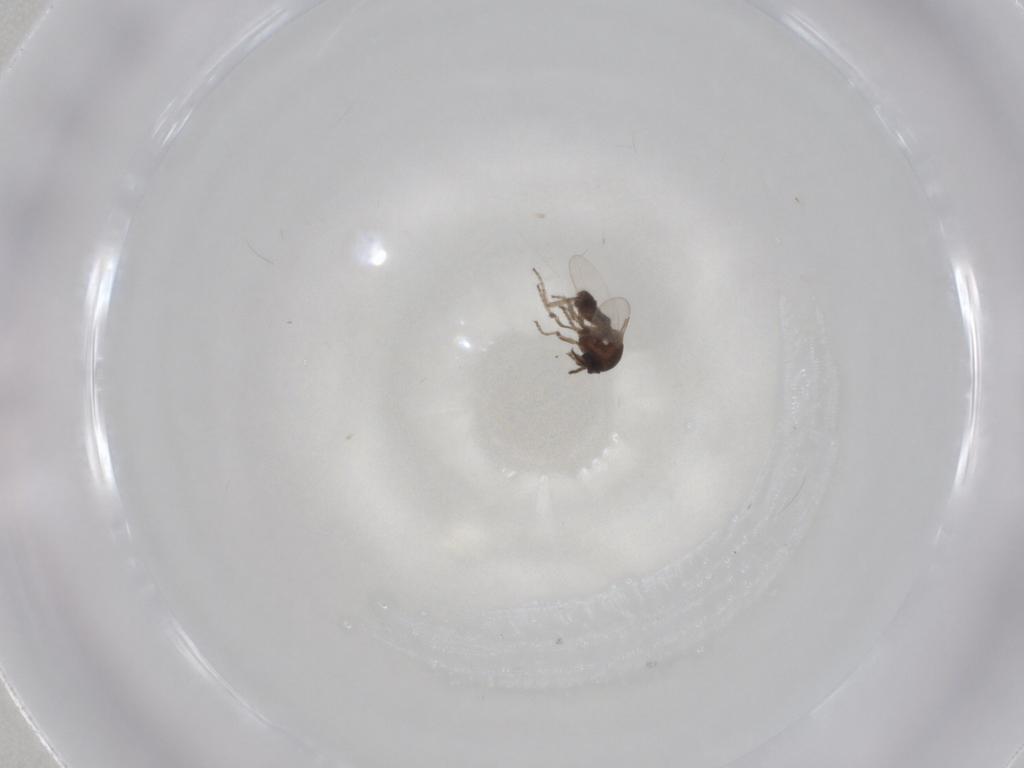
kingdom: Animalia
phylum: Arthropoda
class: Insecta
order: Diptera
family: Ceratopogonidae
